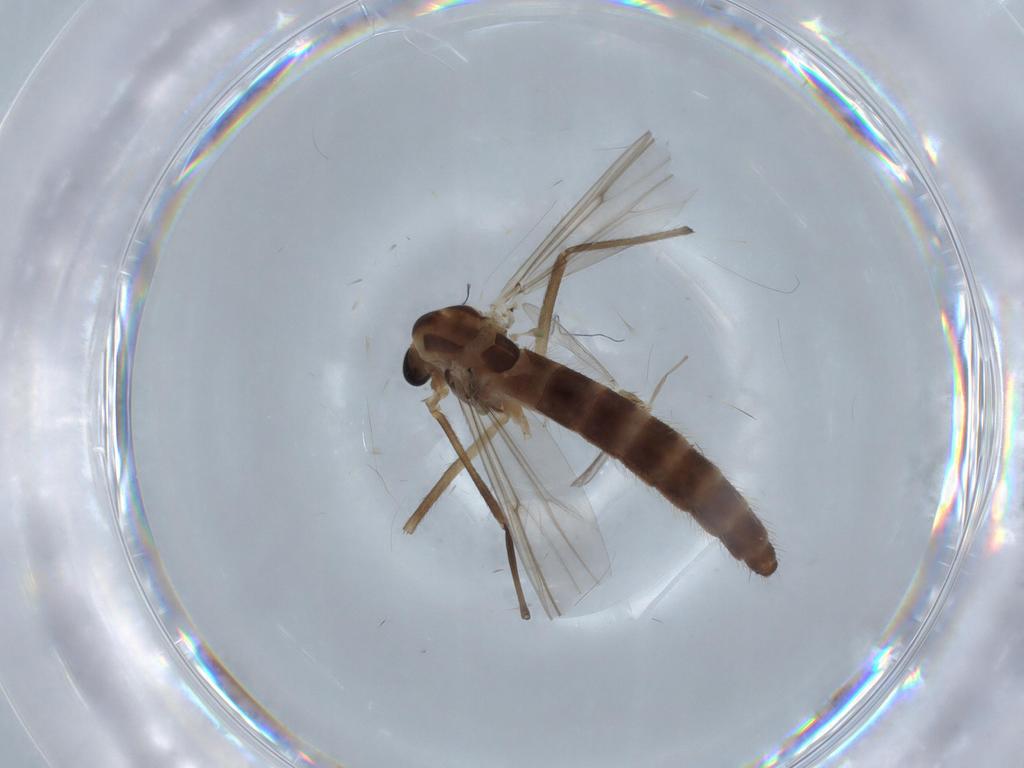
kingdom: Animalia
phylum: Arthropoda
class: Insecta
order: Diptera
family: Chironomidae
